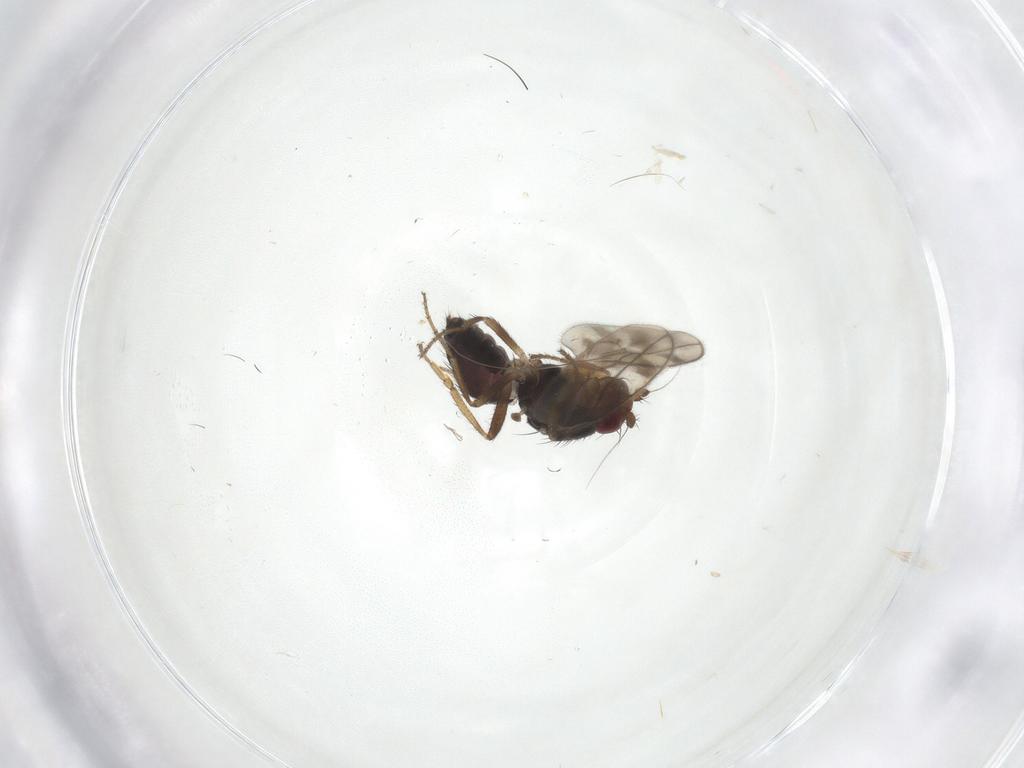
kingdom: Animalia
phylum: Arthropoda
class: Insecta
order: Diptera
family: Sphaeroceridae
